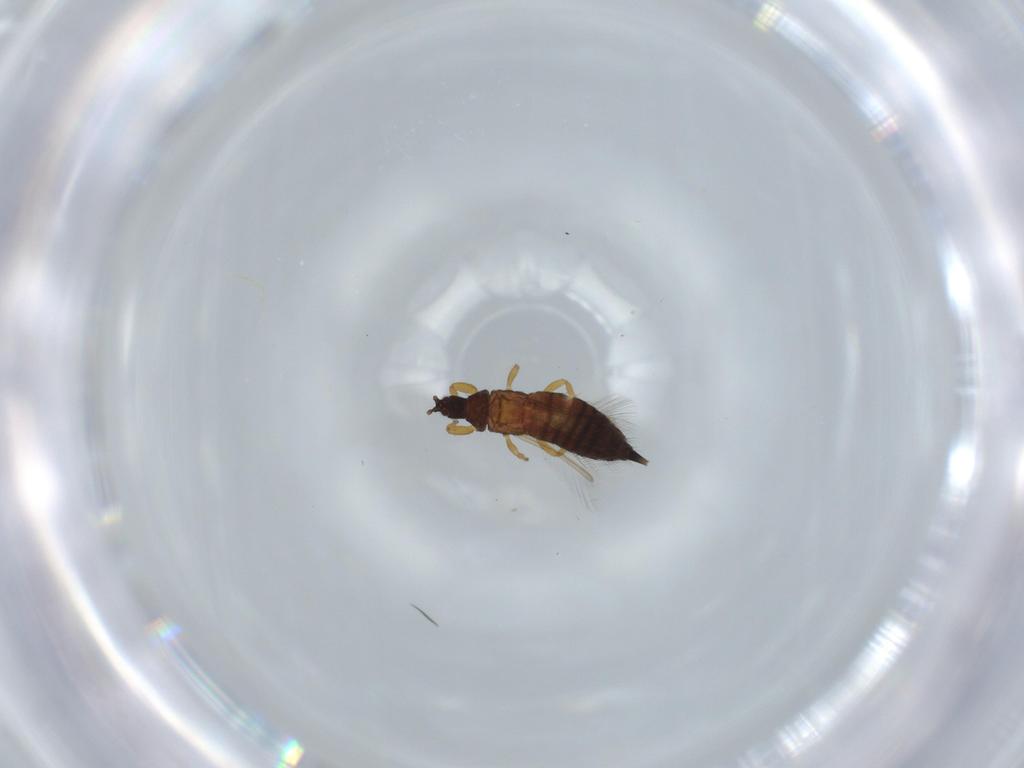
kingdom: Animalia
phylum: Arthropoda
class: Insecta
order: Thysanoptera
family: Phlaeothripidae
